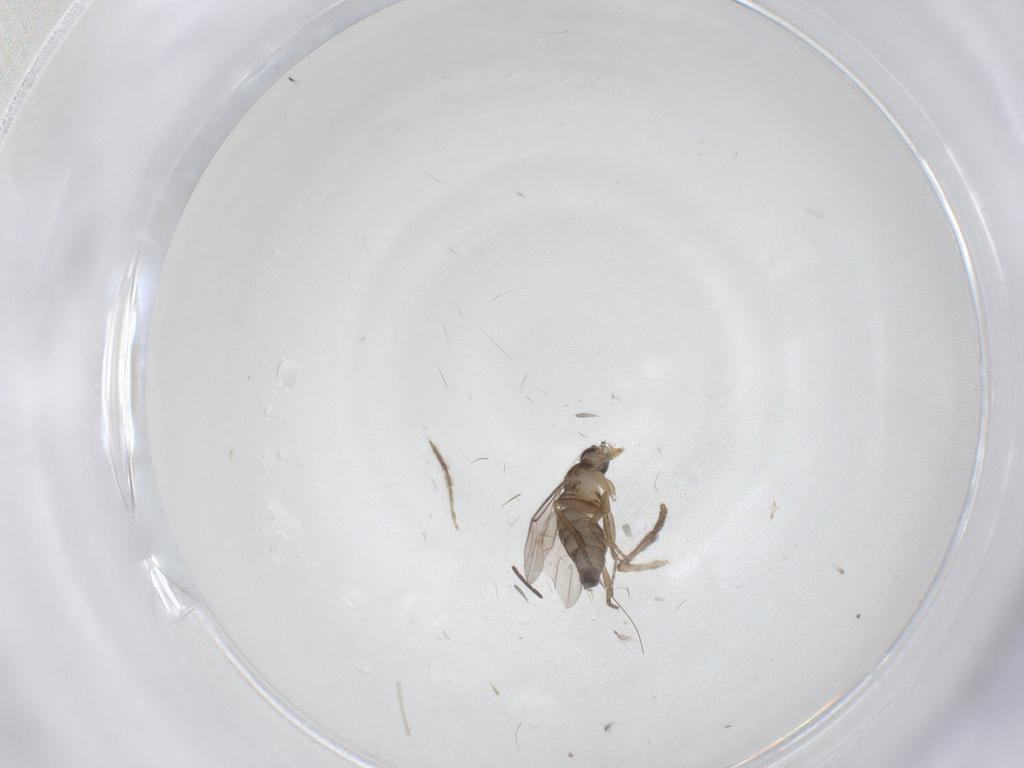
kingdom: Animalia
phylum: Arthropoda
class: Insecta
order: Diptera
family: Psychodidae
